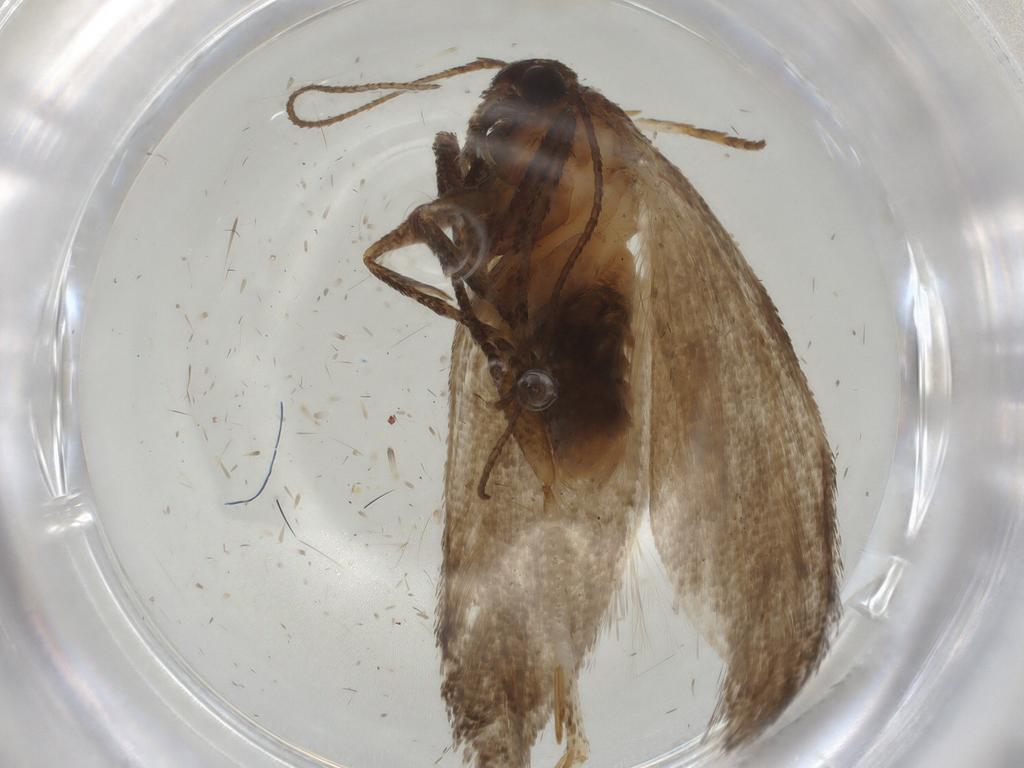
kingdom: Animalia
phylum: Arthropoda
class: Insecta
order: Lepidoptera
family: Cosmopterigidae
